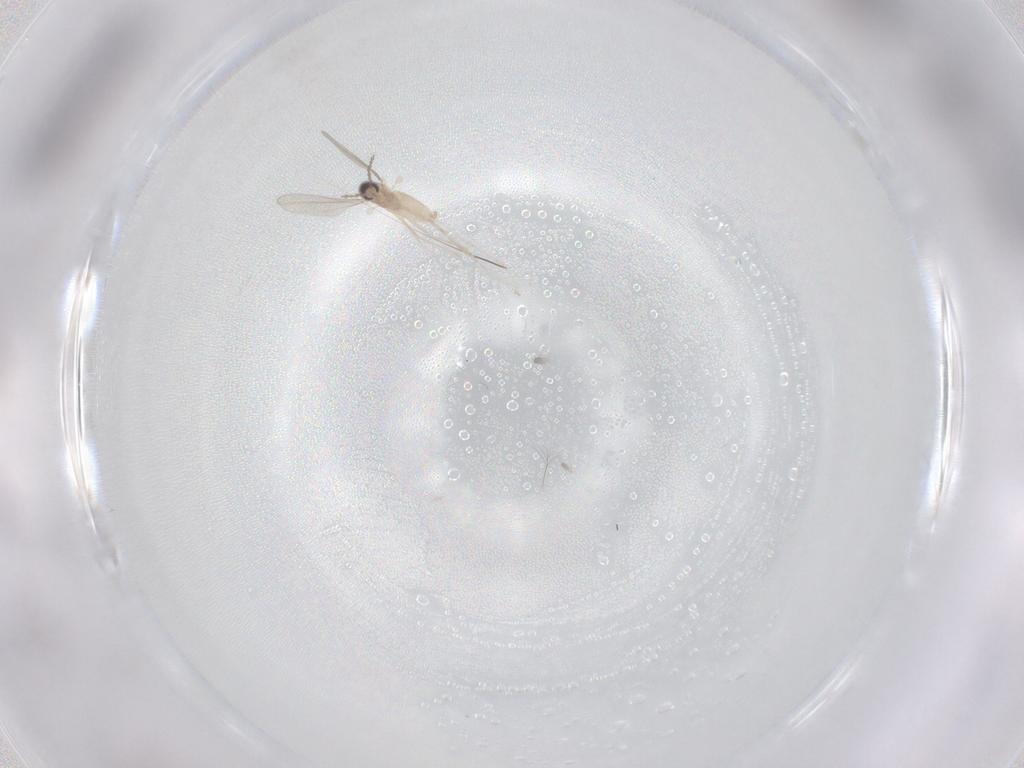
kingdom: Animalia
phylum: Arthropoda
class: Insecta
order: Diptera
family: Cecidomyiidae
